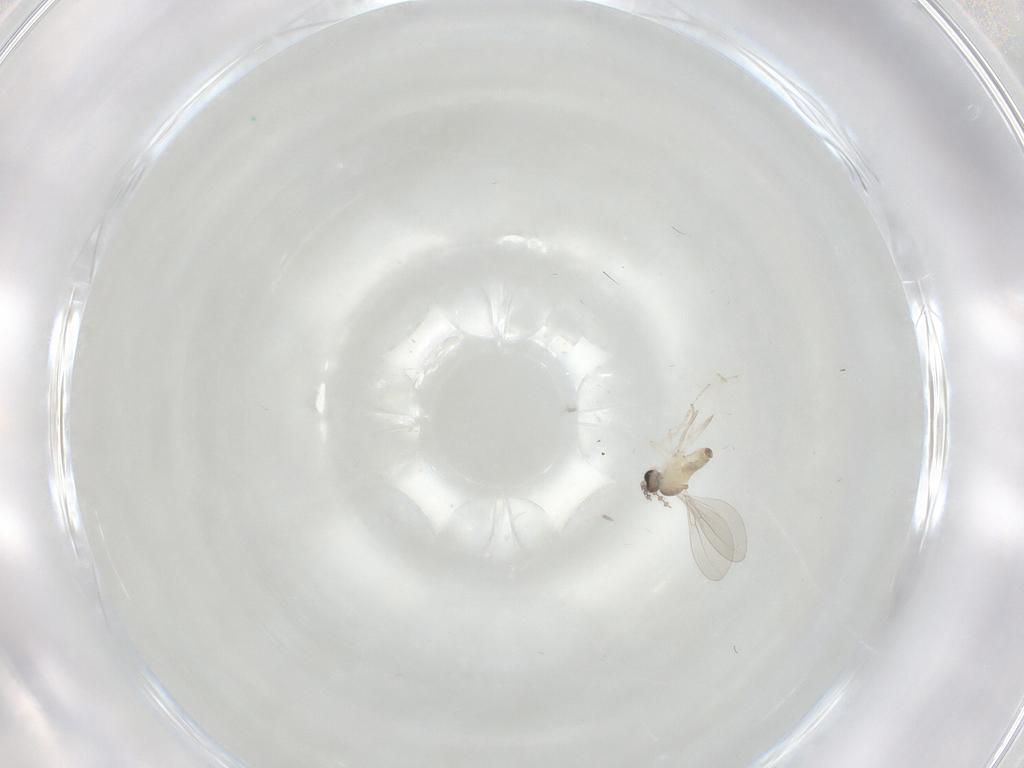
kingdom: Animalia
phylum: Arthropoda
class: Insecta
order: Diptera
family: Cecidomyiidae
